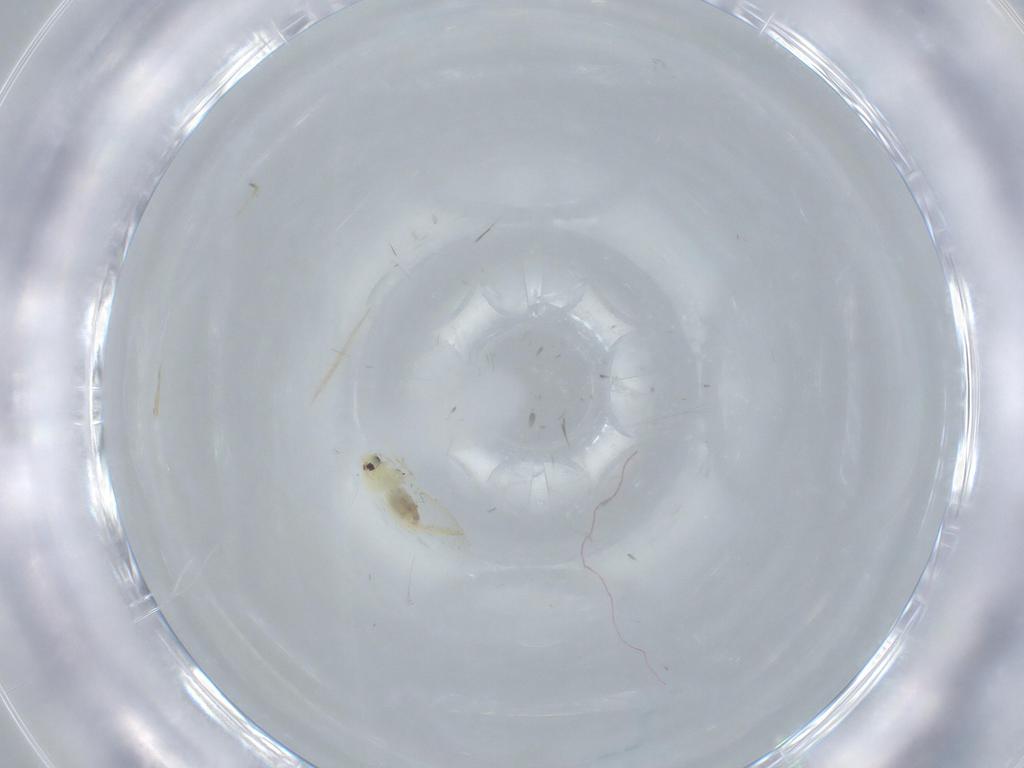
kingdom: Animalia
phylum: Arthropoda
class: Insecta
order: Hemiptera
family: Aleyrodidae
